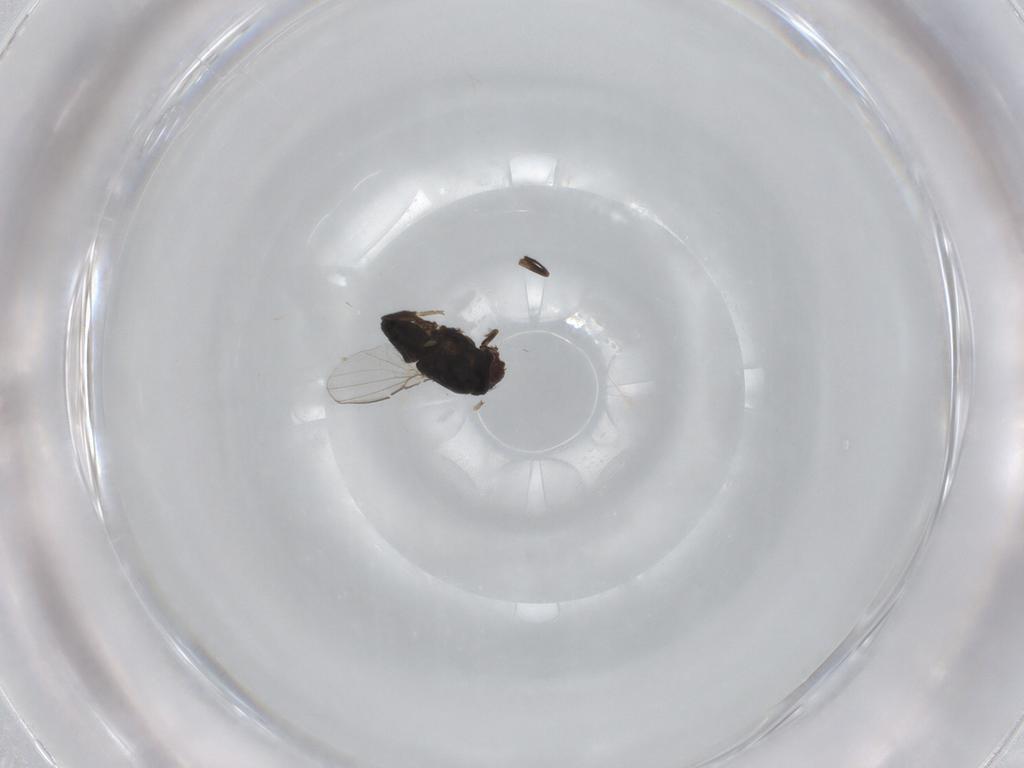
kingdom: Animalia
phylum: Arthropoda
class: Insecta
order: Diptera
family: Milichiidae
